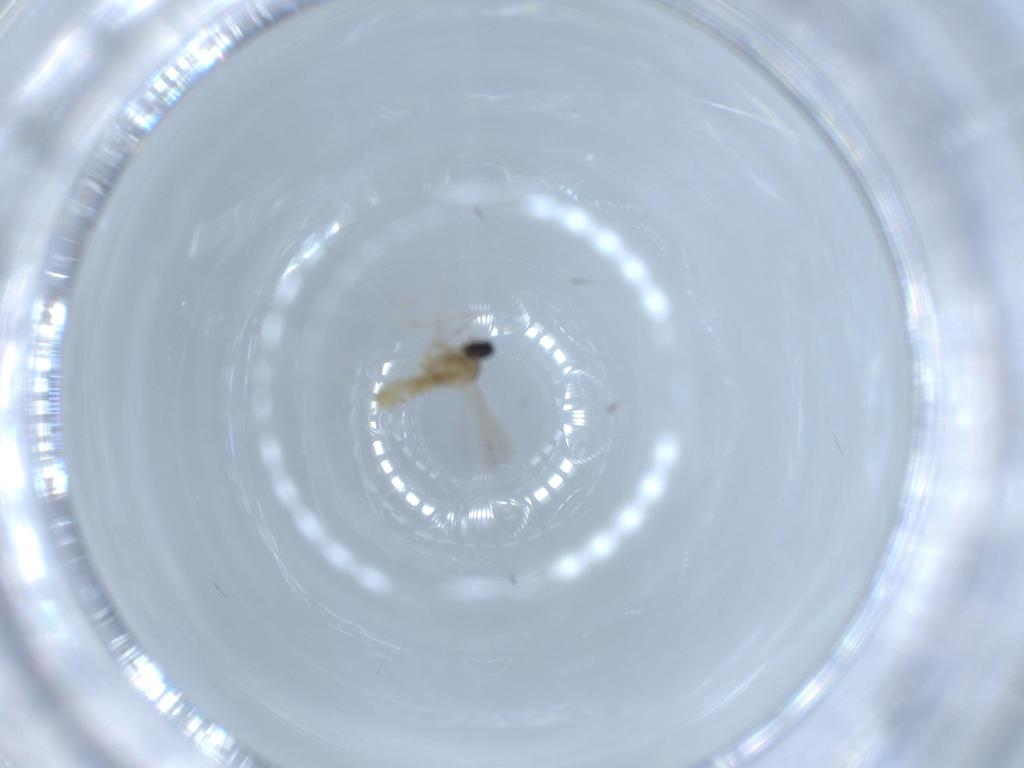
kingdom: Animalia
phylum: Arthropoda
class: Insecta
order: Diptera
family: Cecidomyiidae
